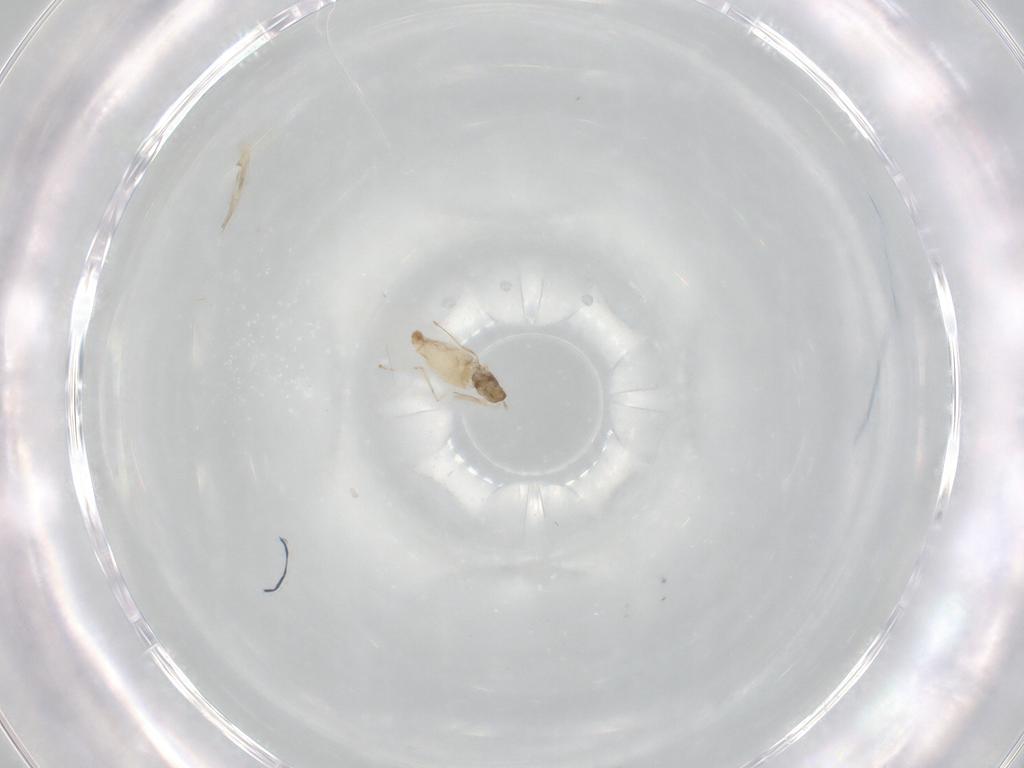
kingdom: Animalia
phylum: Arthropoda
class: Insecta
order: Diptera
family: Cecidomyiidae
